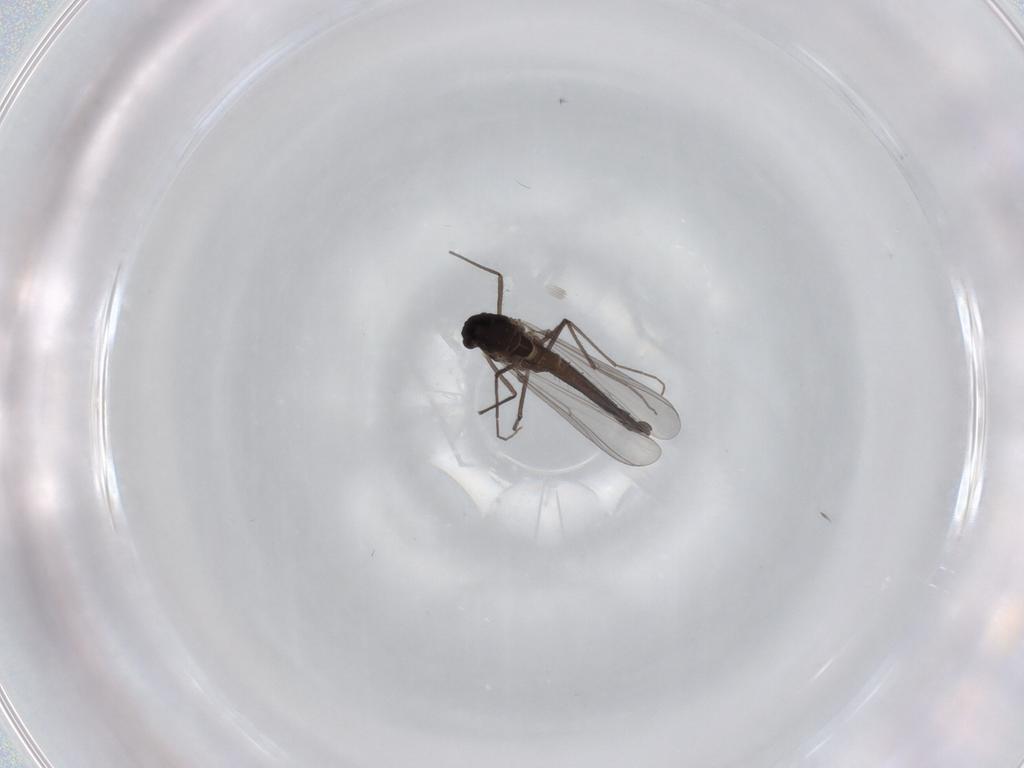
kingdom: Animalia
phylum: Arthropoda
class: Insecta
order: Diptera
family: Chironomidae
